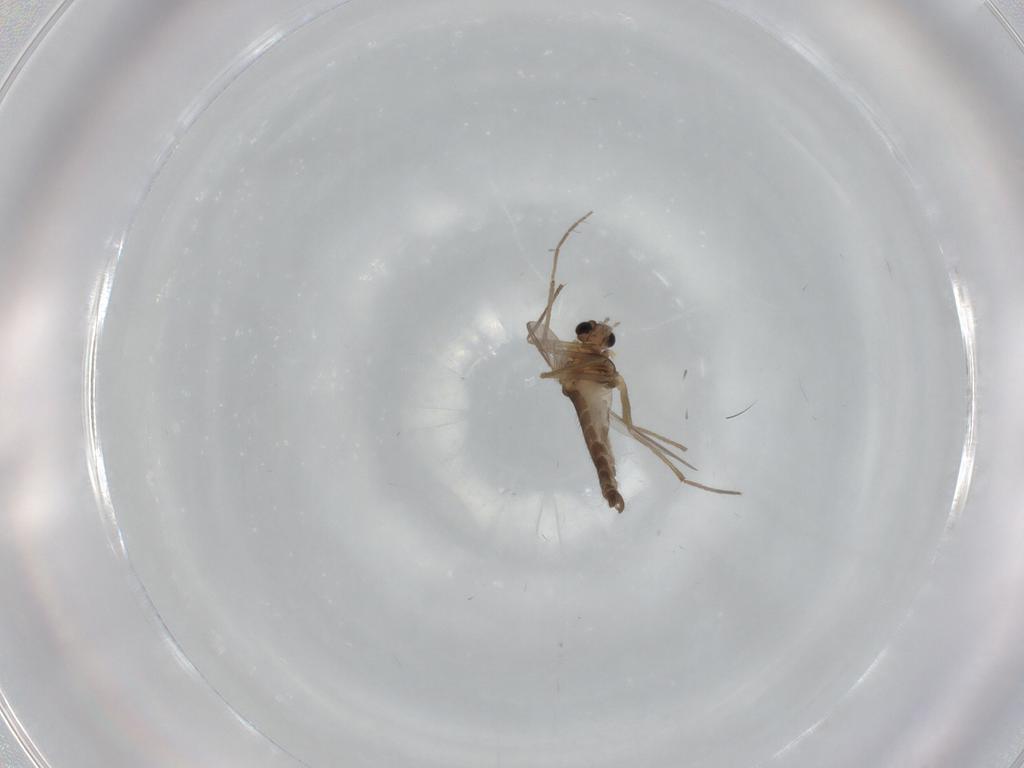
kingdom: Animalia
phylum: Arthropoda
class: Insecta
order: Diptera
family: Chironomidae
